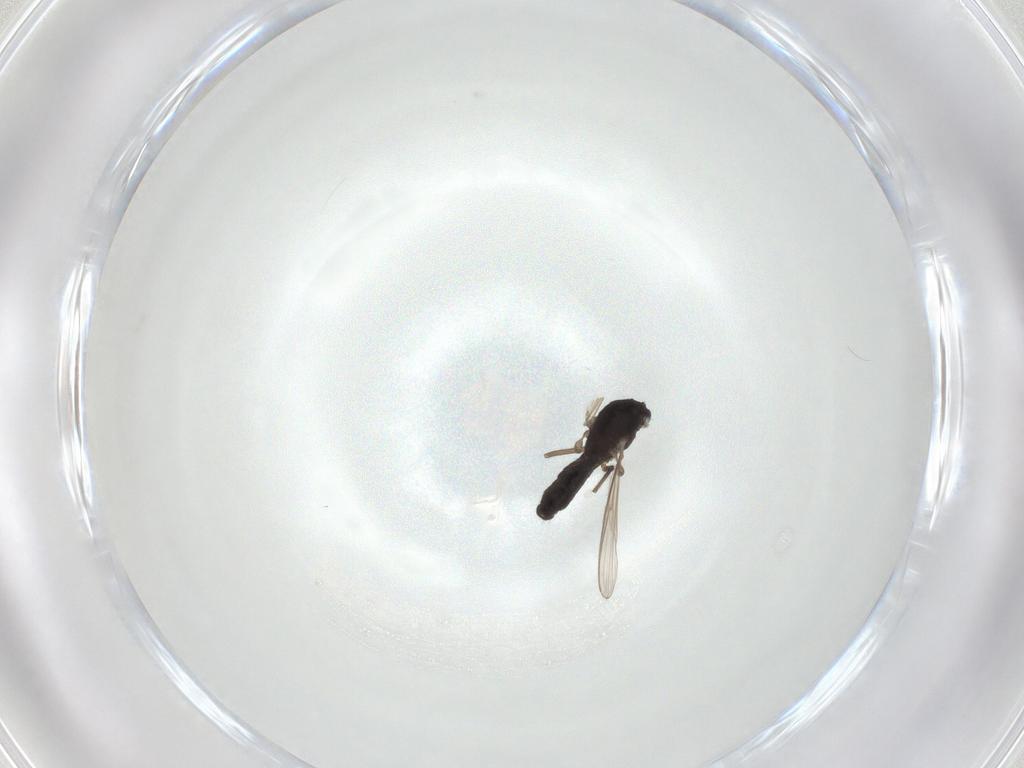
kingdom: Animalia
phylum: Arthropoda
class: Insecta
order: Diptera
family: Chironomidae
